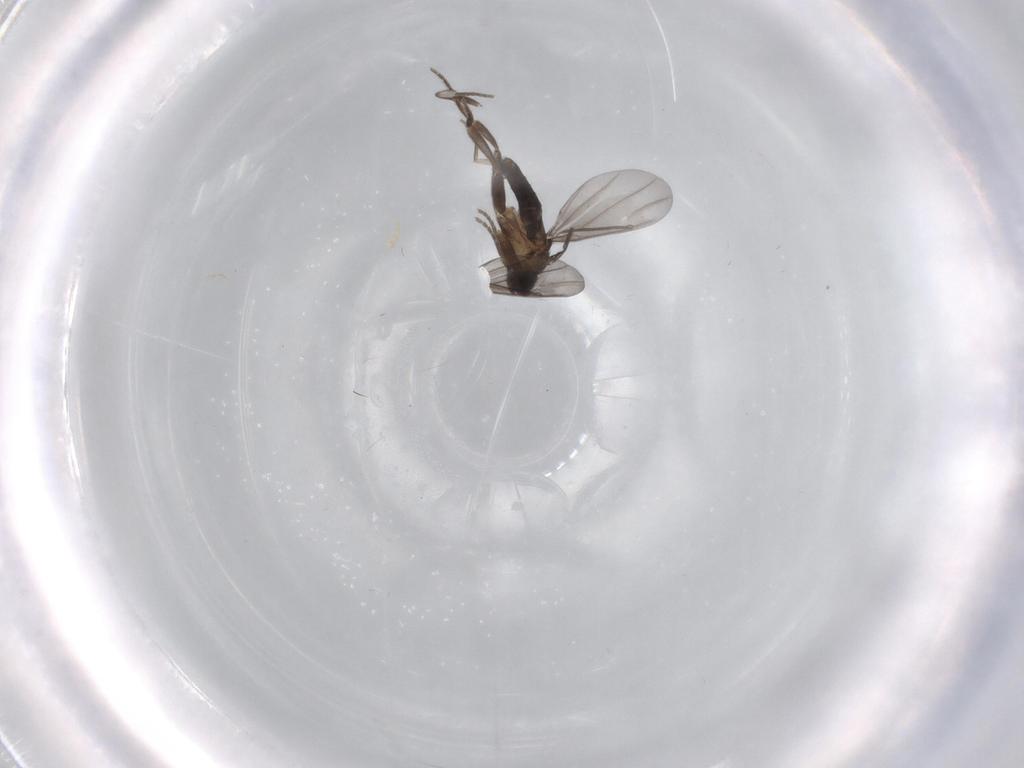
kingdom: Animalia
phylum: Arthropoda
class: Insecta
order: Diptera
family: Phoridae
